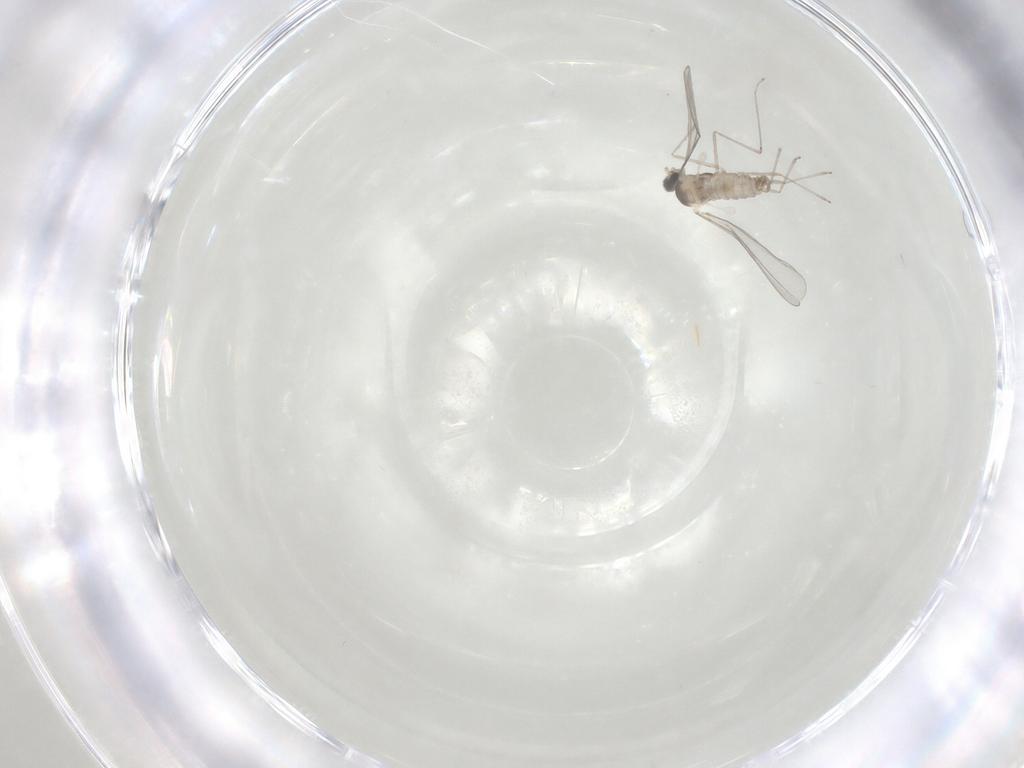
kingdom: Animalia
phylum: Arthropoda
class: Insecta
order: Diptera
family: Cecidomyiidae
